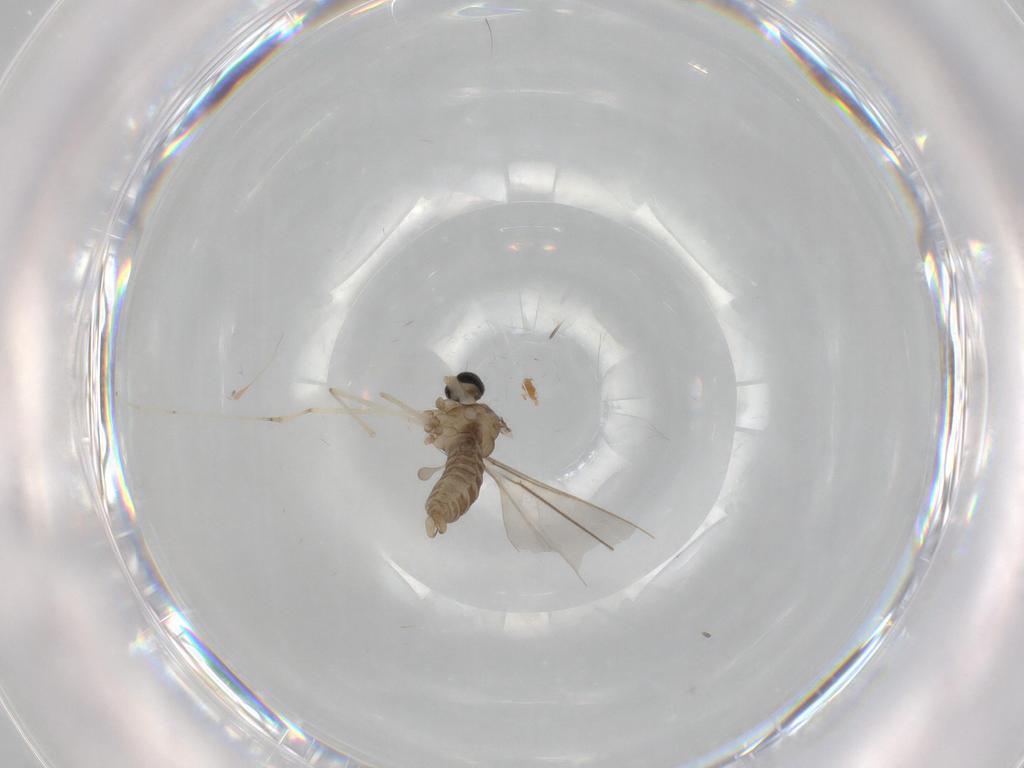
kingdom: Animalia
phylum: Arthropoda
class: Insecta
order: Diptera
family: Cecidomyiidae
